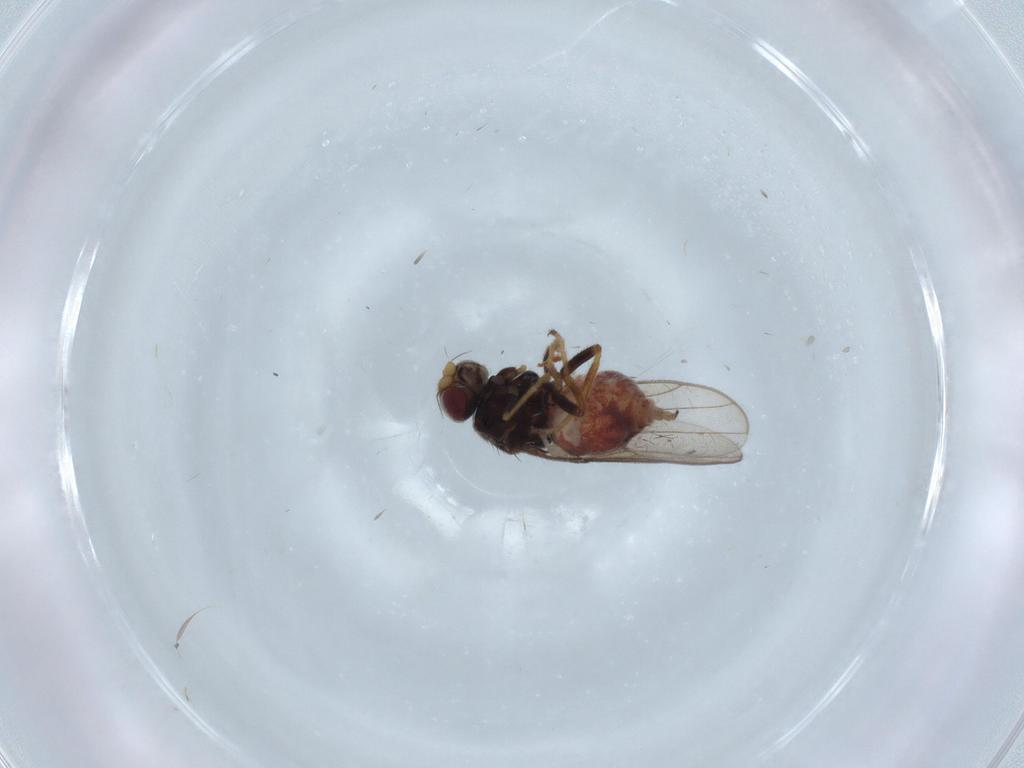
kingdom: Animalia
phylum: Arthropoda
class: Insecta
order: Diptera
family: Chloropidae
